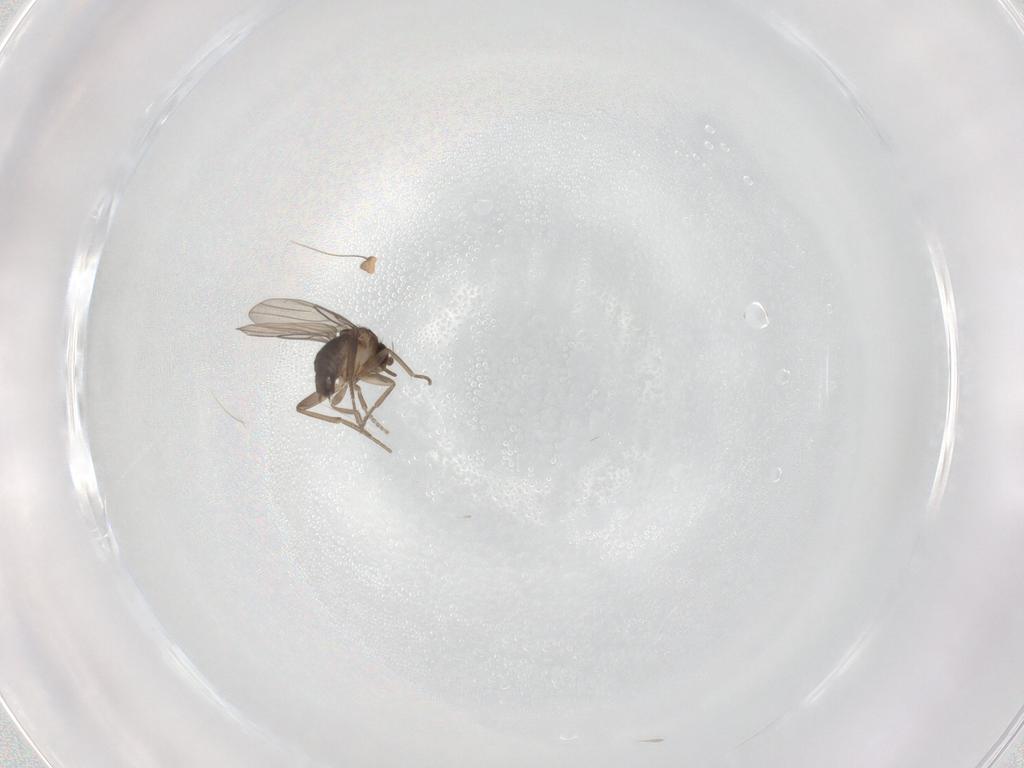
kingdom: Animalia
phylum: Arthropoda
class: Insecta
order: Diptera
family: Dolichopodidae
